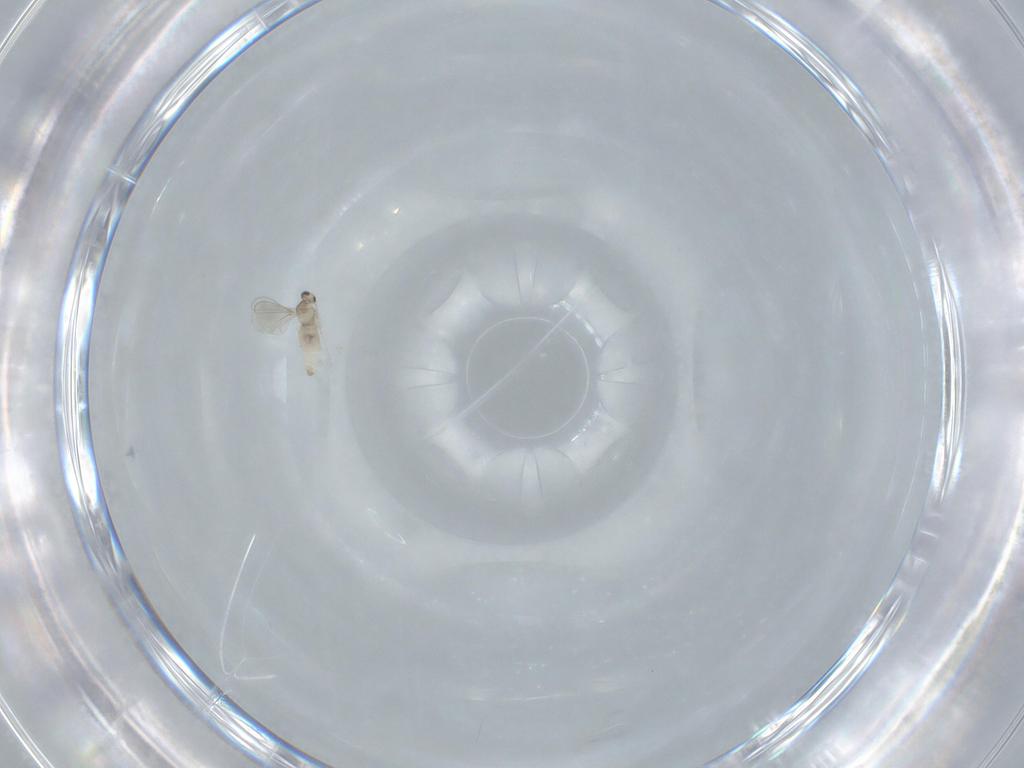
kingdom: Animalia
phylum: Arthropoda
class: Insecta
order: Diptera
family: Cecidomyiidae
